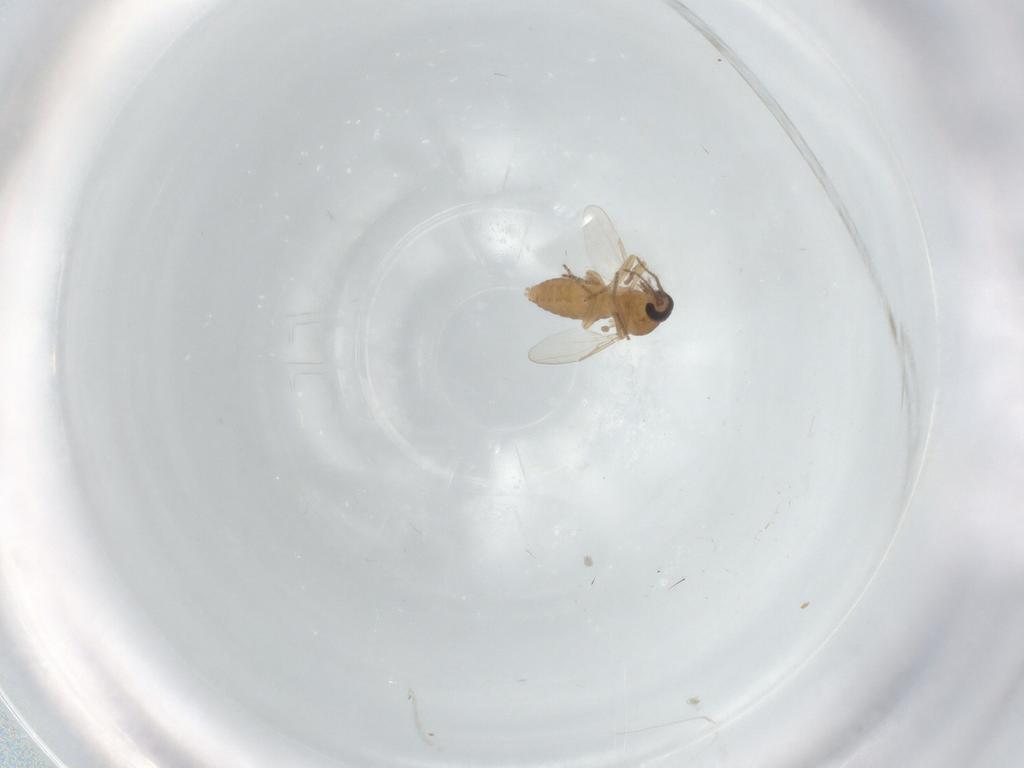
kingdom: Animalia
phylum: Arthropoda
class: Insecta
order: Diptera
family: Ceratopogonidae
